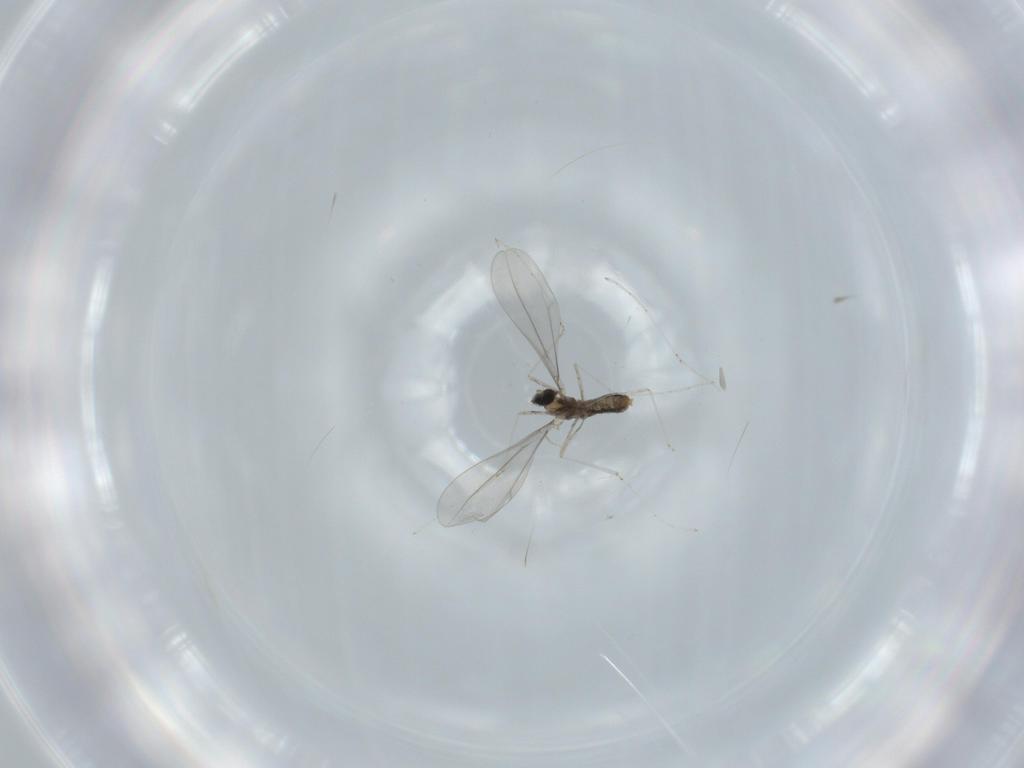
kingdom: Animalia
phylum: Arthropoda
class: Insecta
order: Diptera
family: Cecidomyiidae
